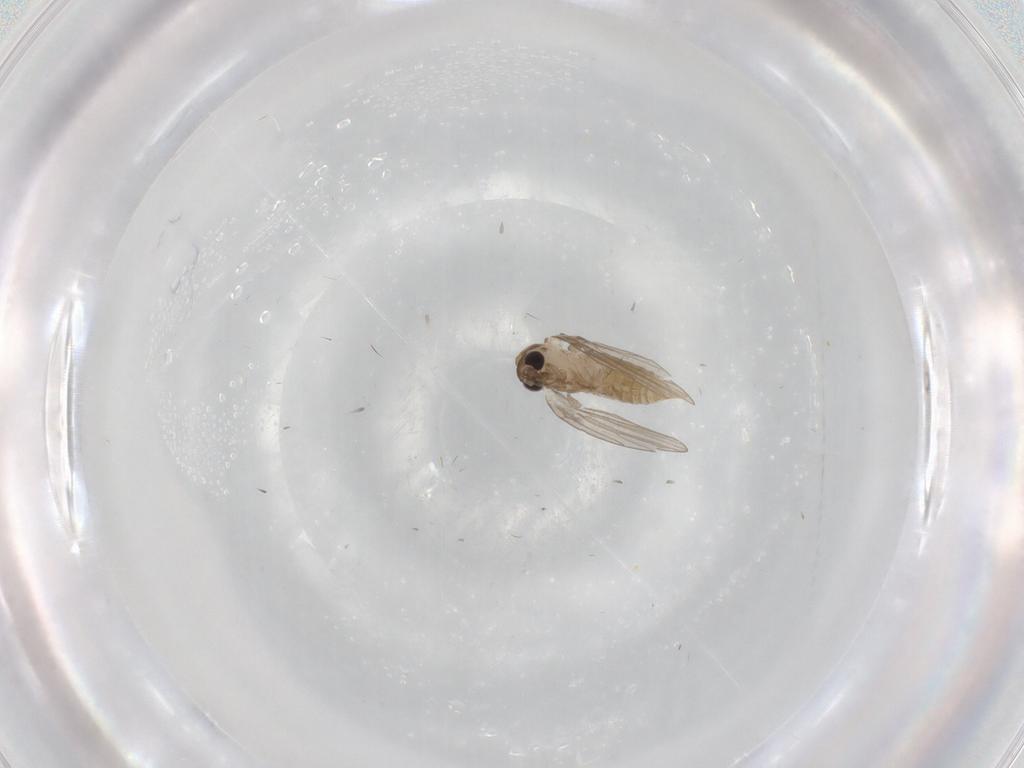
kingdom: Animalia
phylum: Arthropoda
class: Insecta
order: Diptera
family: Psychodidae
